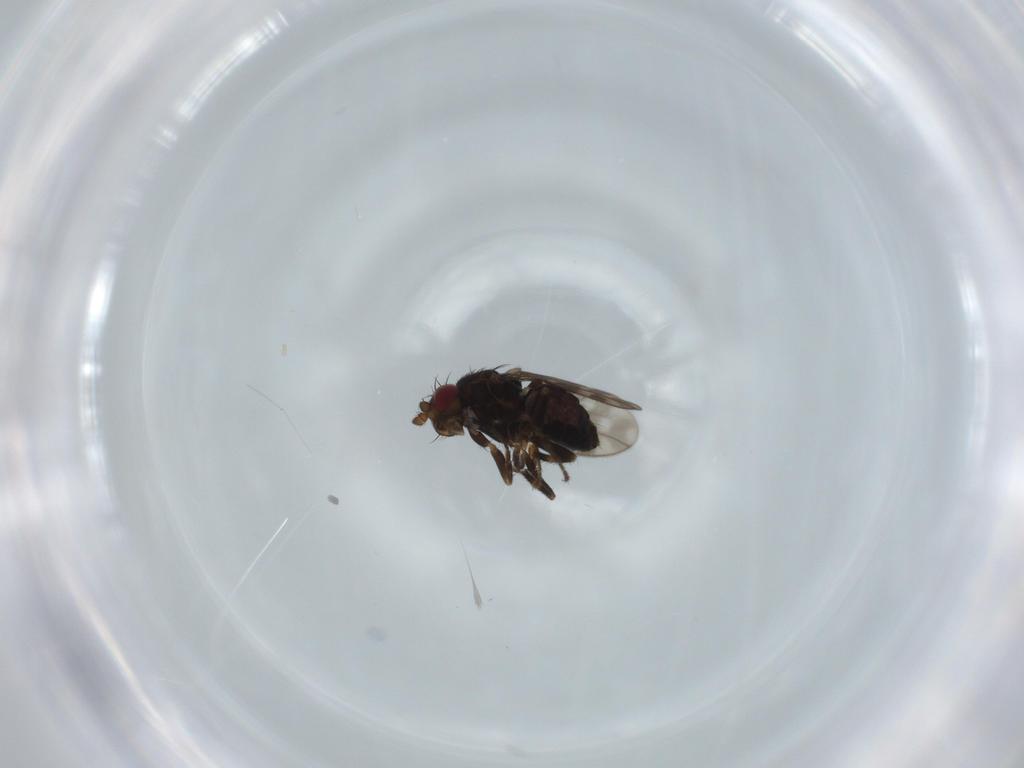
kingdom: Animalia
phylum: Arthropoda
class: Insecta
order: Diptera
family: Sphaeroceridae
